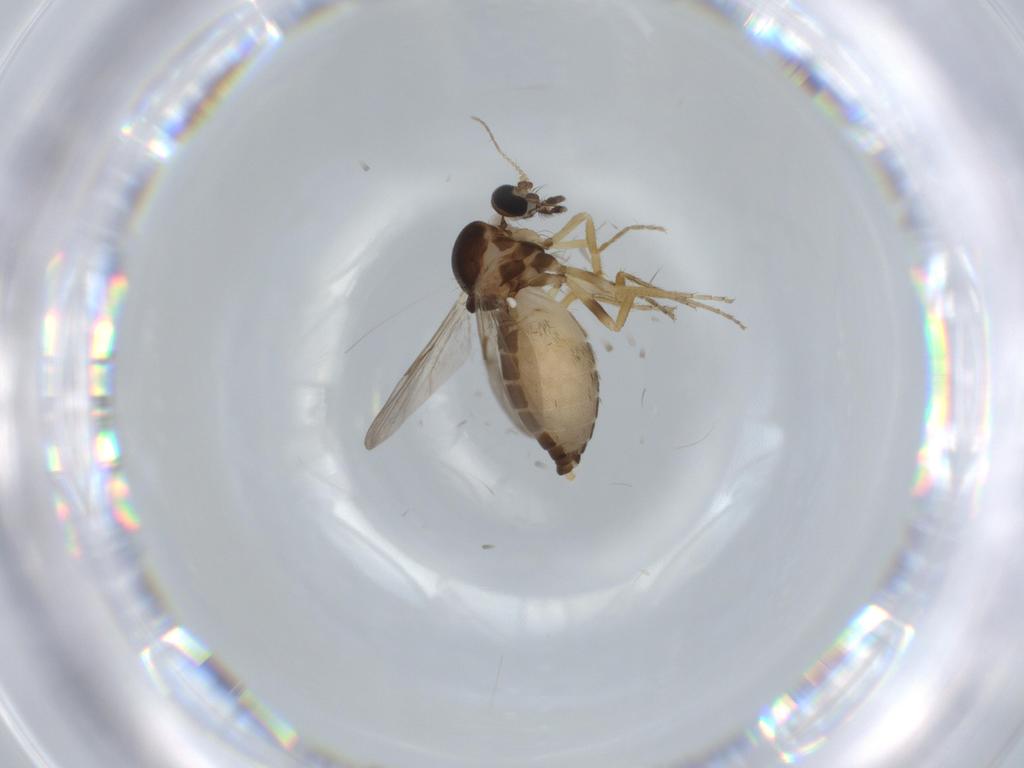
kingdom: Animalia
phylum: Arthropoda
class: Insecta
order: Diptera
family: Ceratopogonidae
